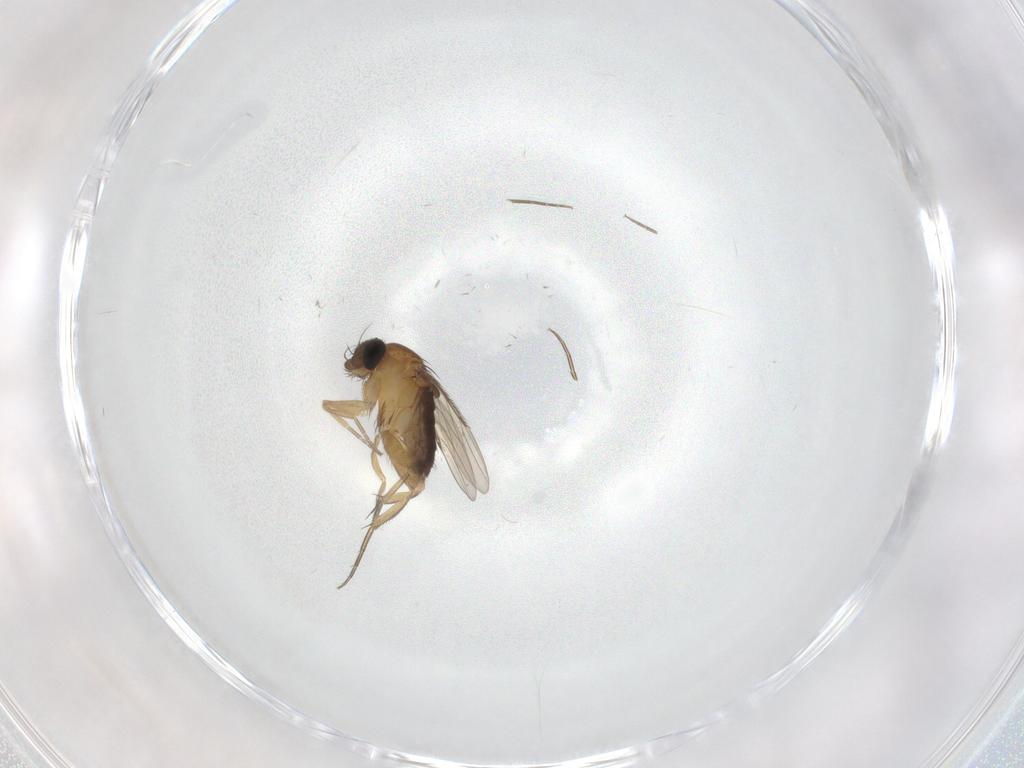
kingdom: Animalia
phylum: Arthropoda
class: Insecta
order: Diptera
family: Phoridae
